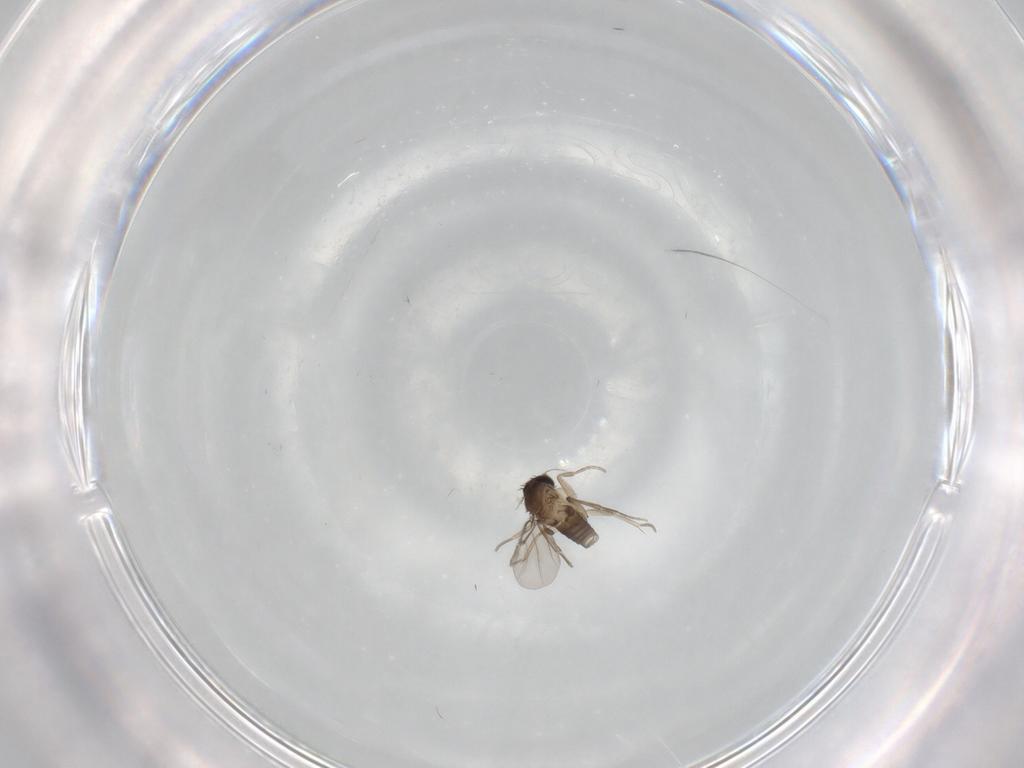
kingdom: Animalia
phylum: Arthropoda
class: Insecta
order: Diptera
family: Phoridae
